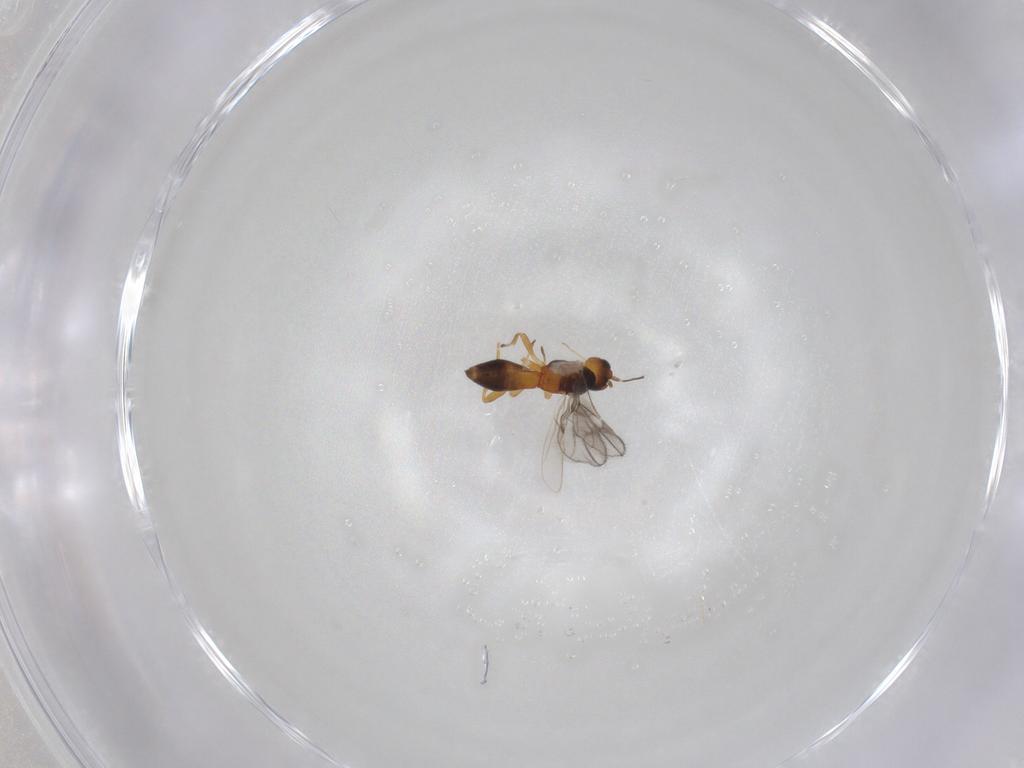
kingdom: Animalia
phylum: Arthropoda
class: Insecta
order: Hymenoptera
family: Braconidae
